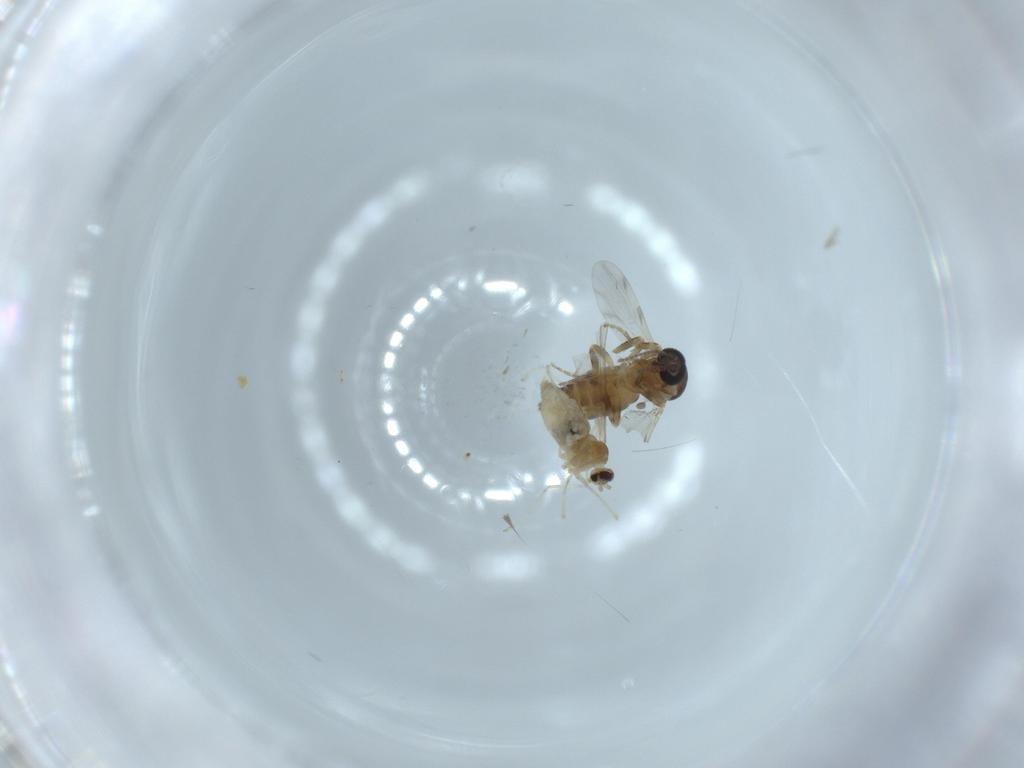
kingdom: Animalia
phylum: Arthropoda
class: Insecta
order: Diptera
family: Cecidomyiidae
